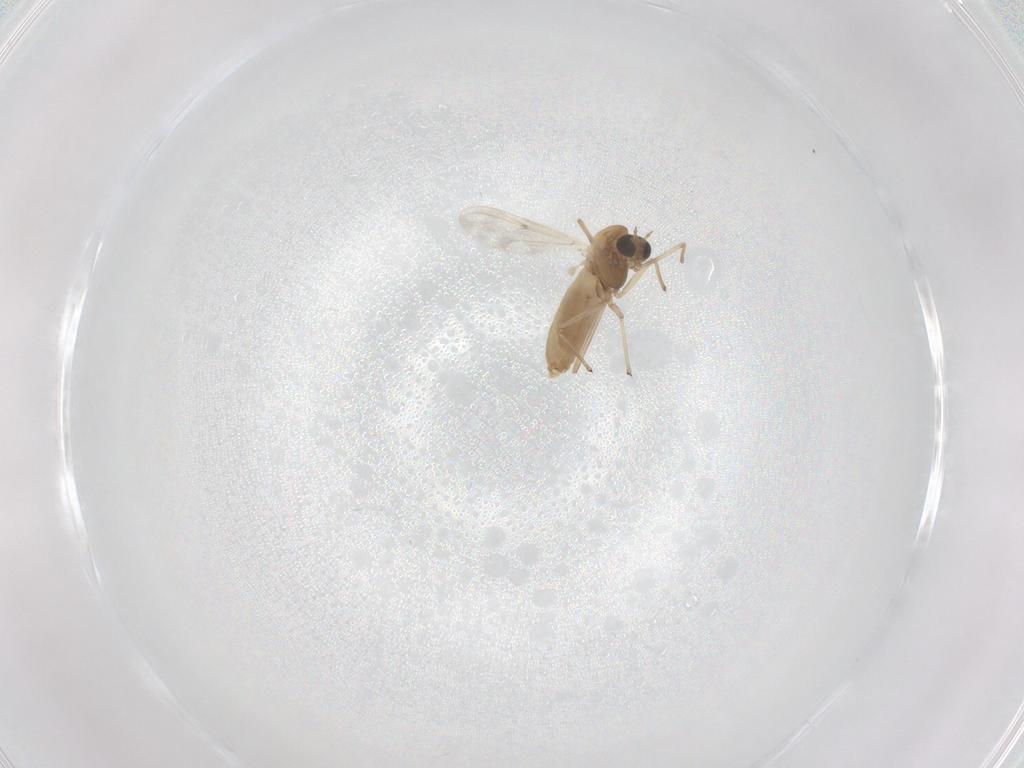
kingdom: Animalia
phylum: Arthropoda
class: Insecta
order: Diptera
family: Chironomidae
